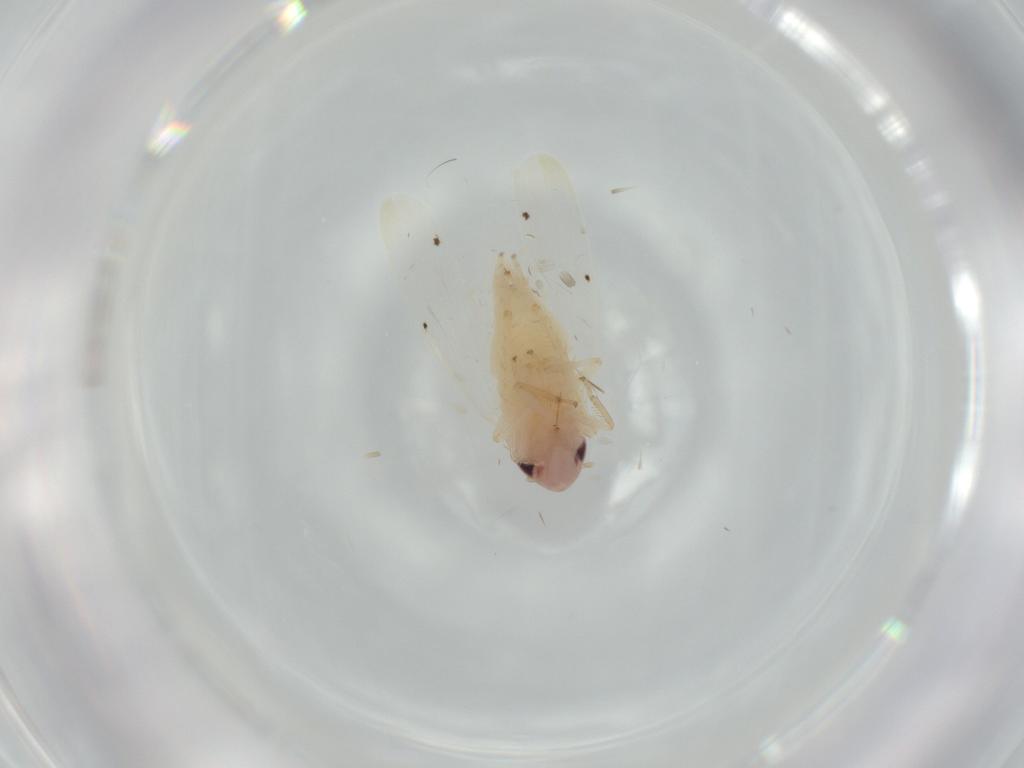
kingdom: Animalia
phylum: Arthropoda
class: Insecta
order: Hemiptera
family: Cicadellidae
